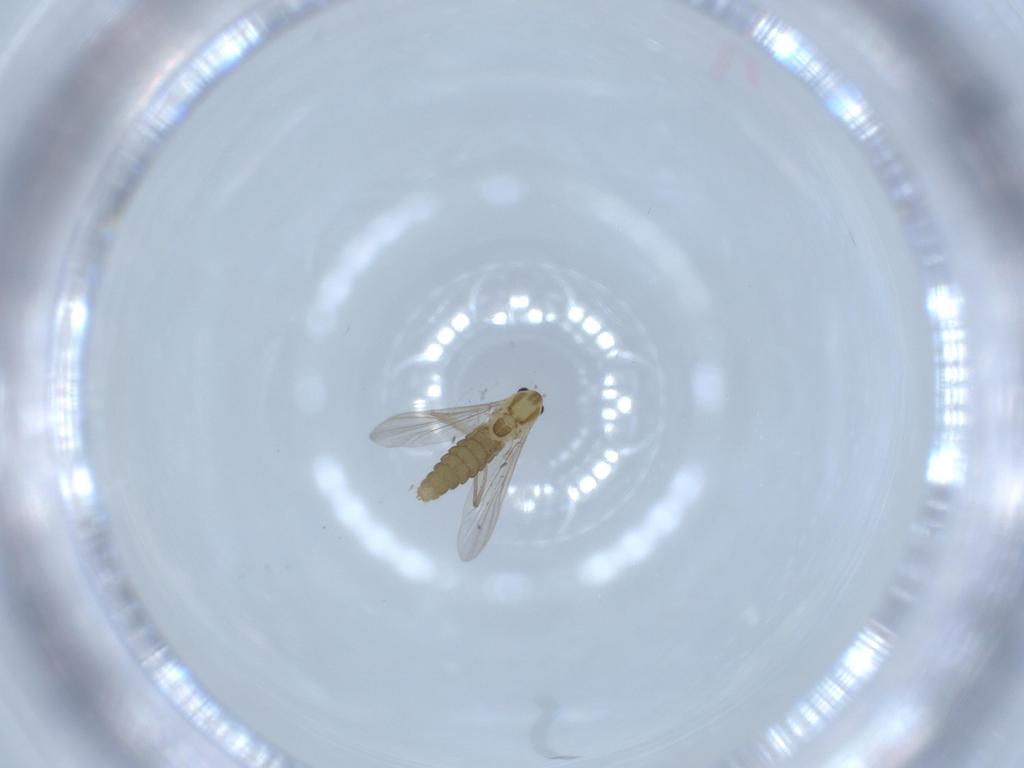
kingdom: Animalia
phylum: Arthropoda
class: Insecta
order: Diptera
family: Chironomidae
